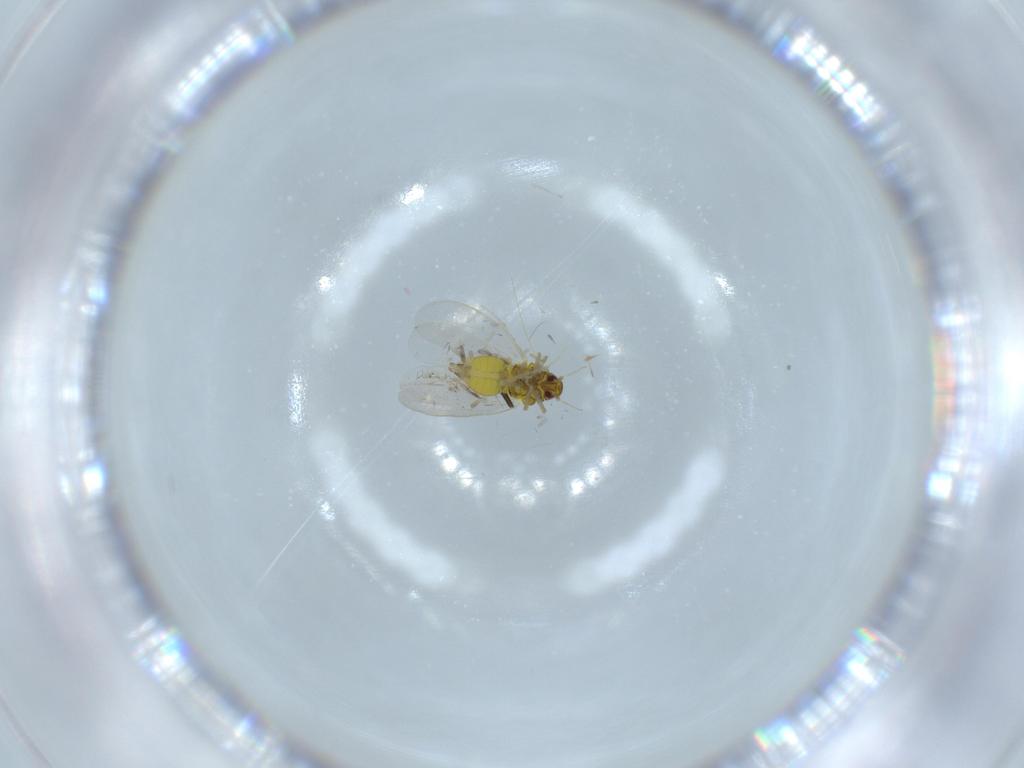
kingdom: Animalia
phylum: Arthropoda
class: Insecta
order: Hemiptera
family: Aleyrodidae
